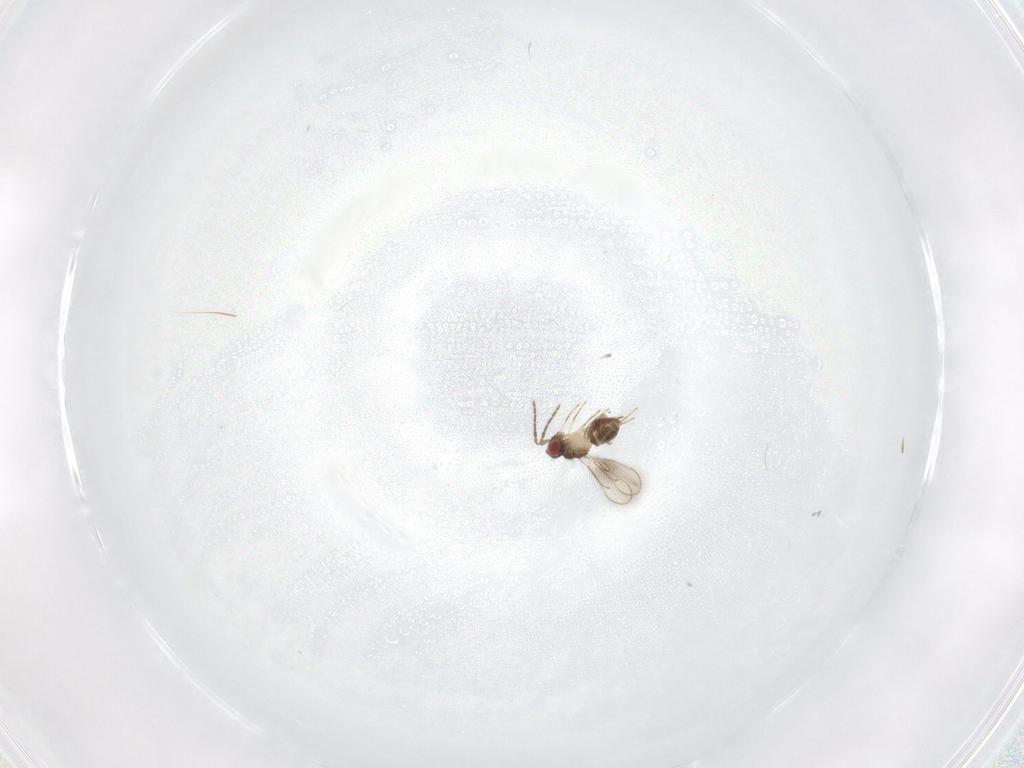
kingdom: Animalia
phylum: Arthropoda
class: Insecta
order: Hymenoptera
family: Eulophidae
